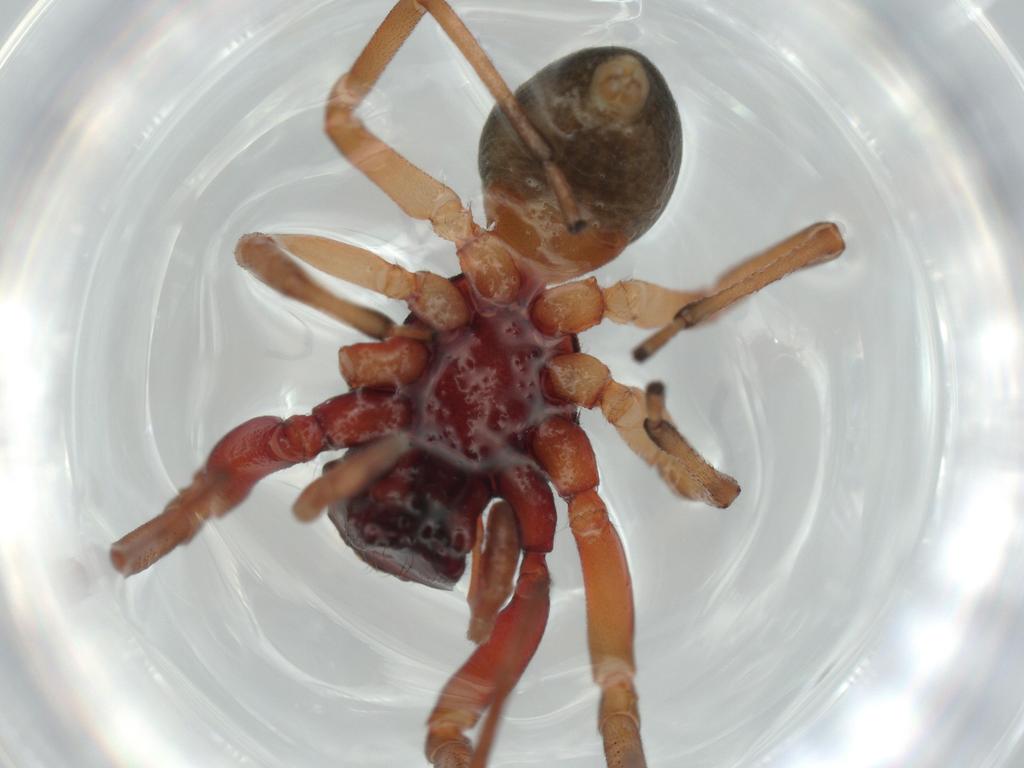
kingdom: Animalia
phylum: Arthropoda
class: Arachnida
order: Araneae
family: Trachelidae
